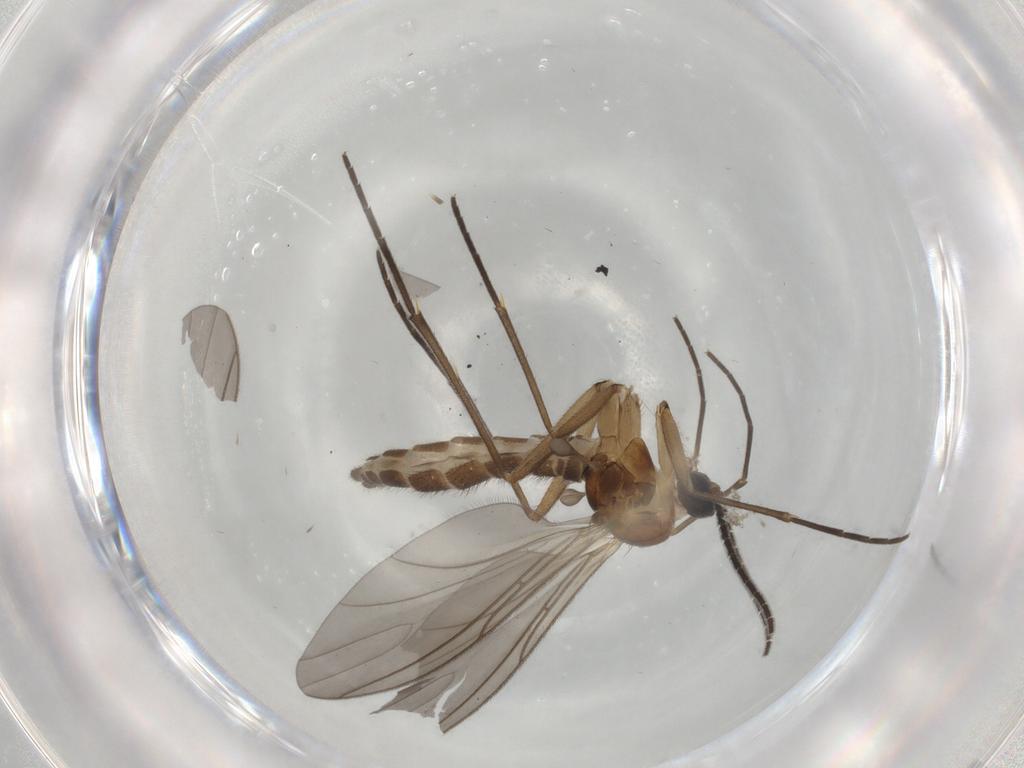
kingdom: Animalia
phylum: Arthropoda
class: Insecta
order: Diptera
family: Sciaridae
